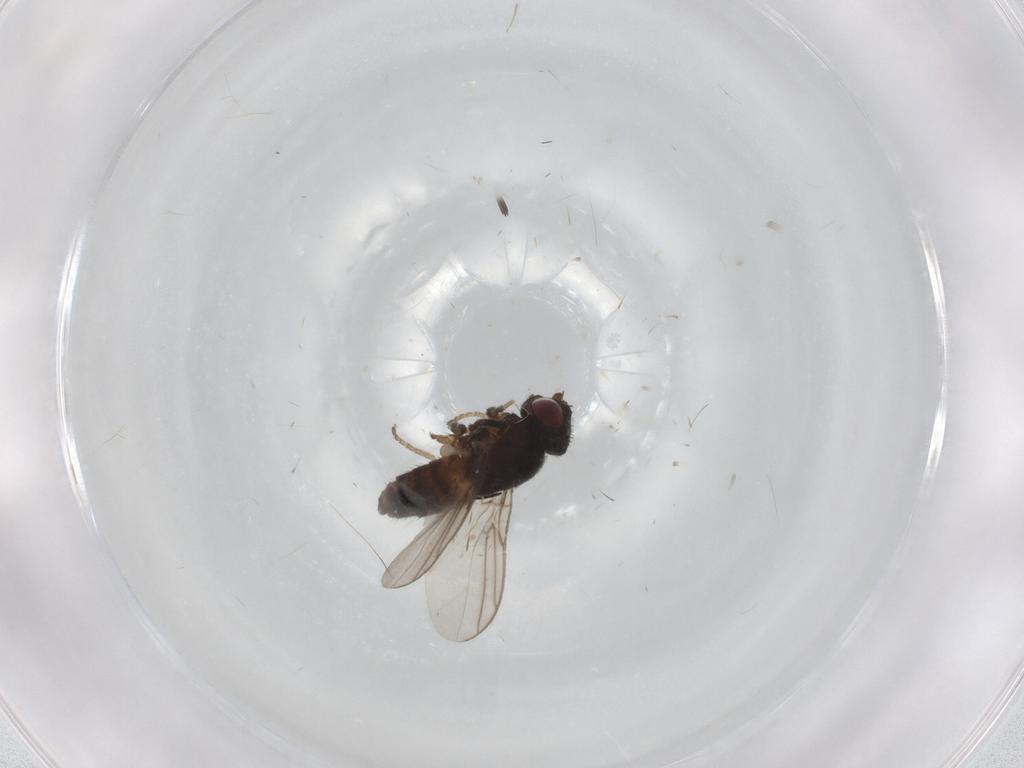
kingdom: Animalia
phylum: Arthropoda
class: Insecta
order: Diptera
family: Chloropidae
